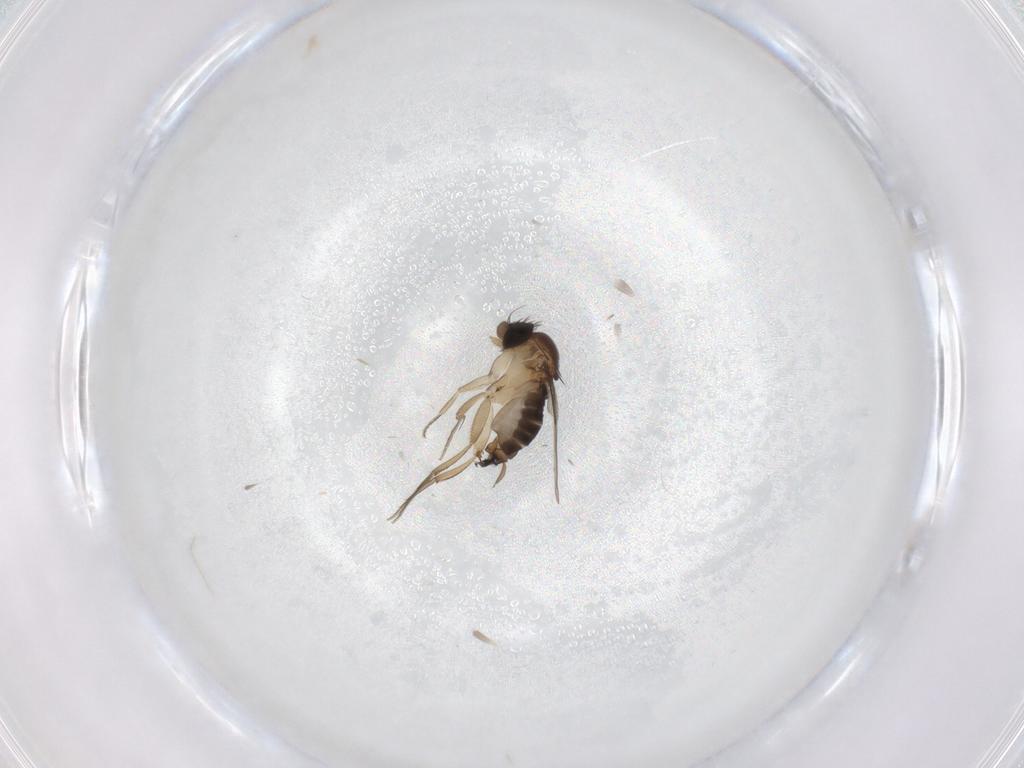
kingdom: Animalia
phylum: Arthropoda
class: Insecta
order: Diptera
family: Phoridae
